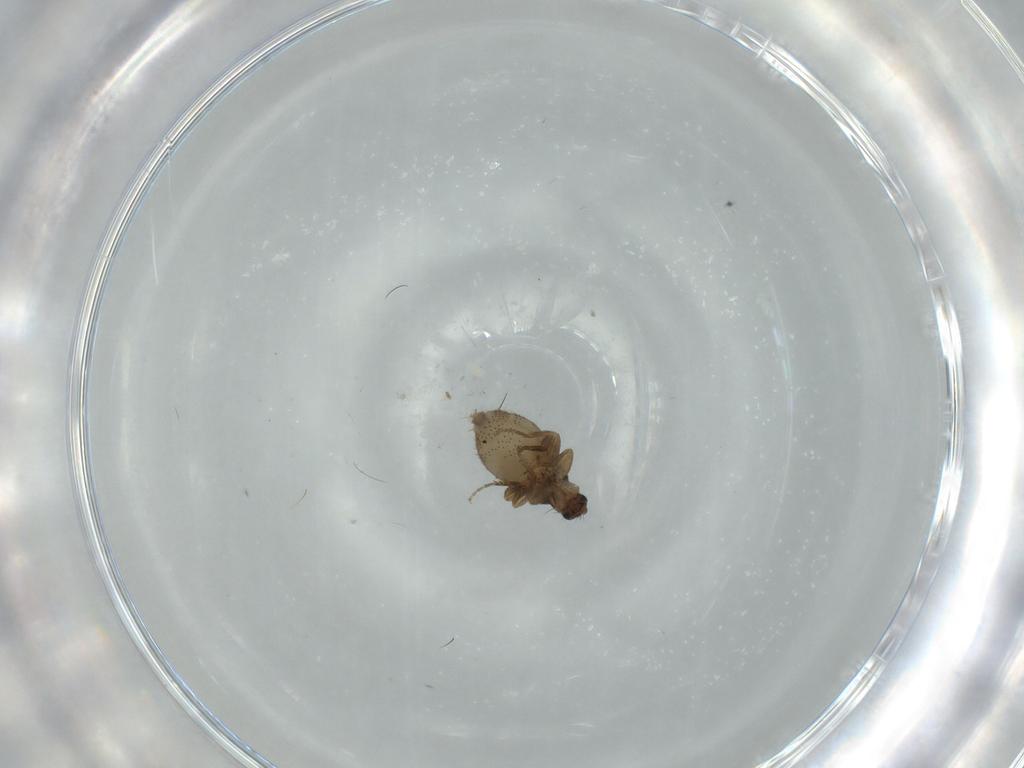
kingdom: Animalia
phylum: Arthropoda
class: Insecta
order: Diptera
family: Phoridae
